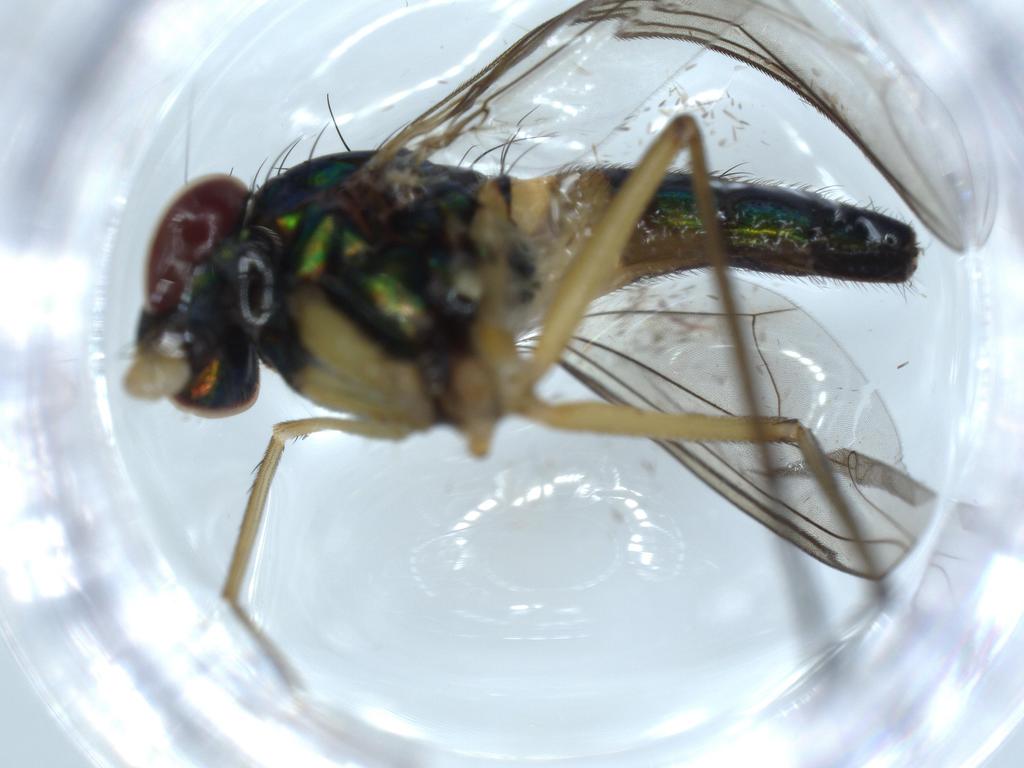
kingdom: Animalia
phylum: Arthropoda
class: Insecta
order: Diptera
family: Dolichopodidae
